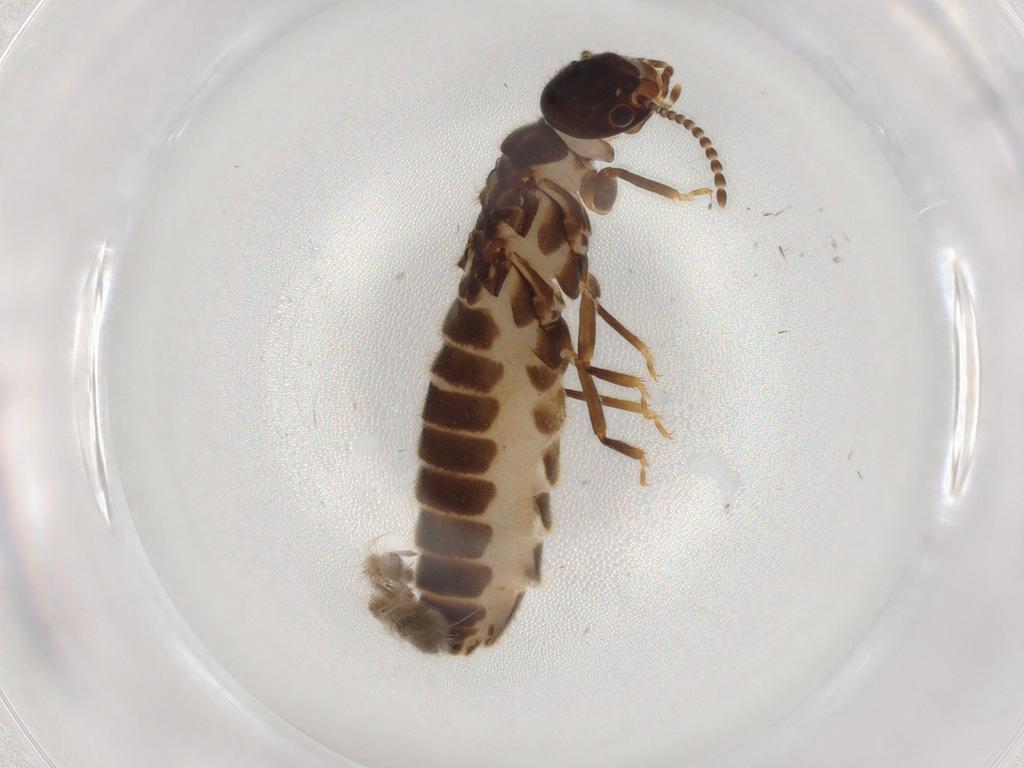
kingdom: Animalia
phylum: Arthropoda
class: Insecta
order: Blattodea
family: Termitidae
